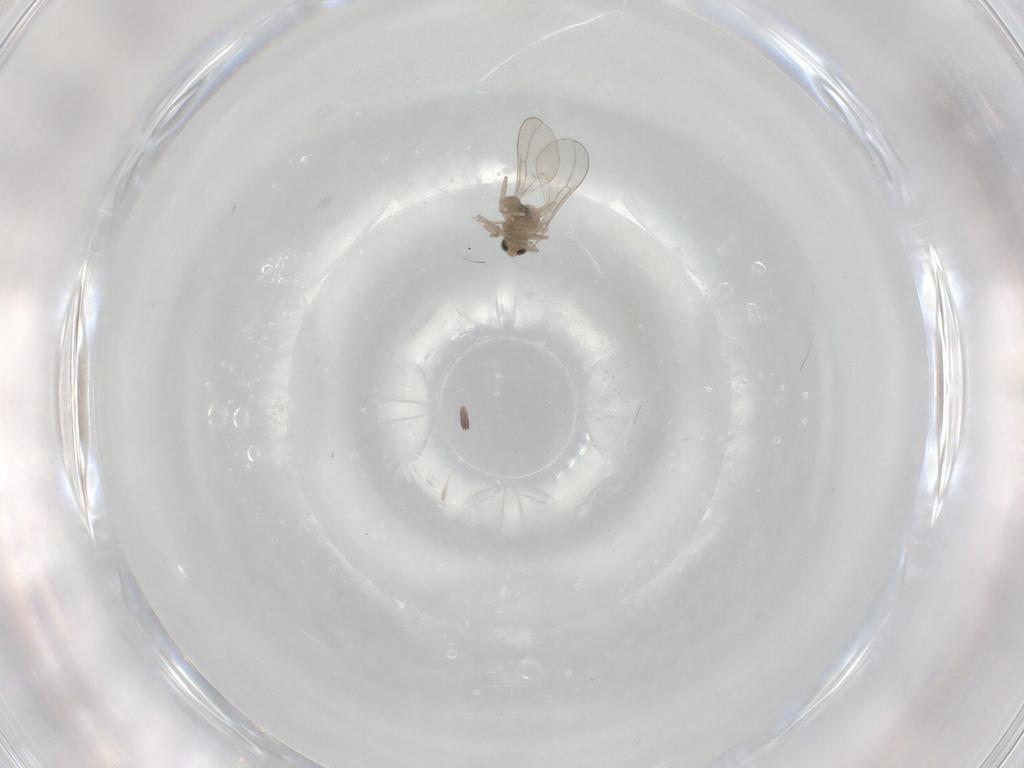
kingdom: Animalia
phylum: Arthropoda
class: Insecta
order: Diptera
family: Cecidomyiidae
